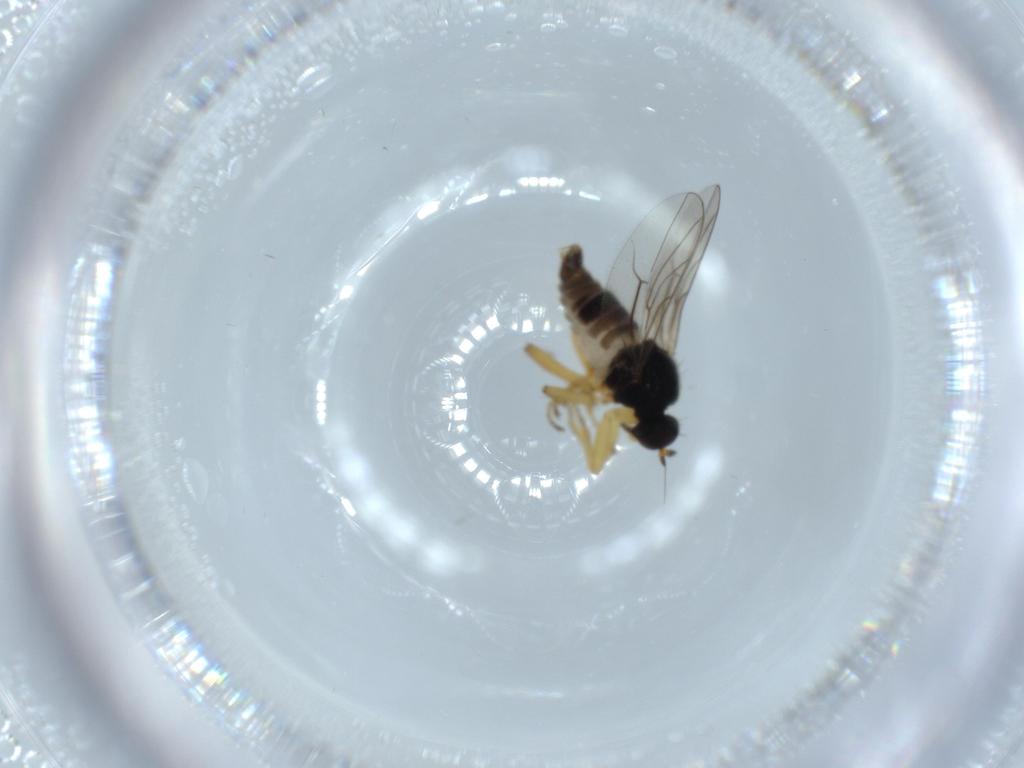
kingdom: Animalia
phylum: Arthropoda
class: Insecta
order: Diptera
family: Hybotidae
